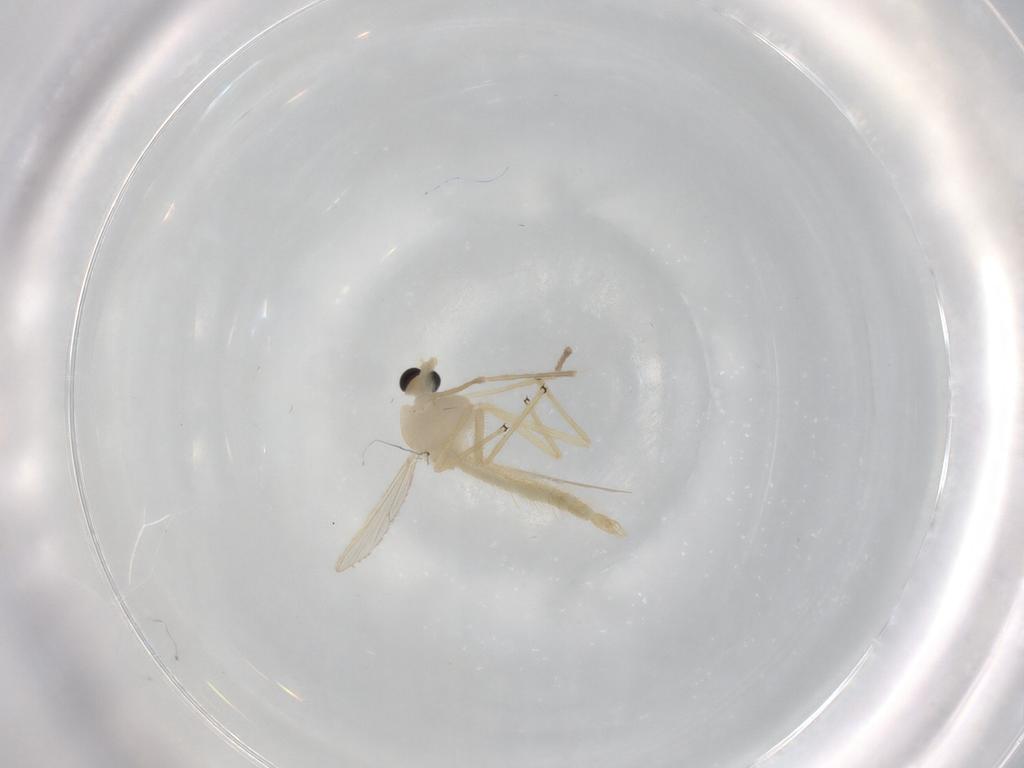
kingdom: Animalia
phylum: Arthropoda
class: Insecta
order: Diptera
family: Chironomidae
